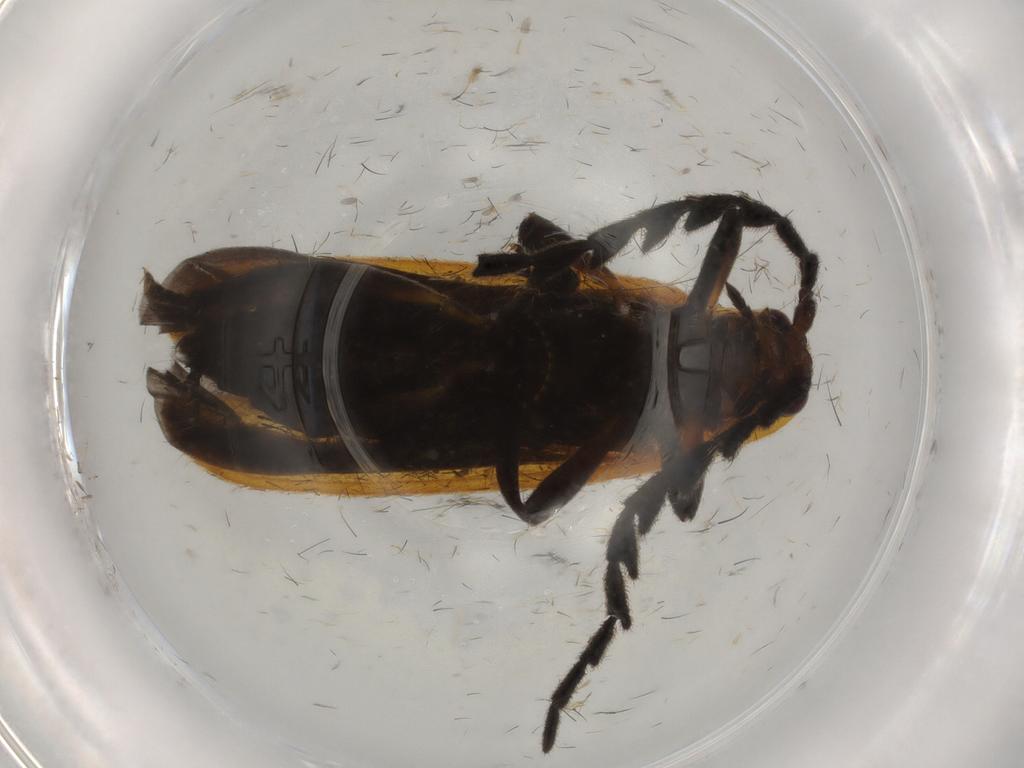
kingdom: Animalia
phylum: Arthropoda
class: Insecta
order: Coleoptera
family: Lycidae
